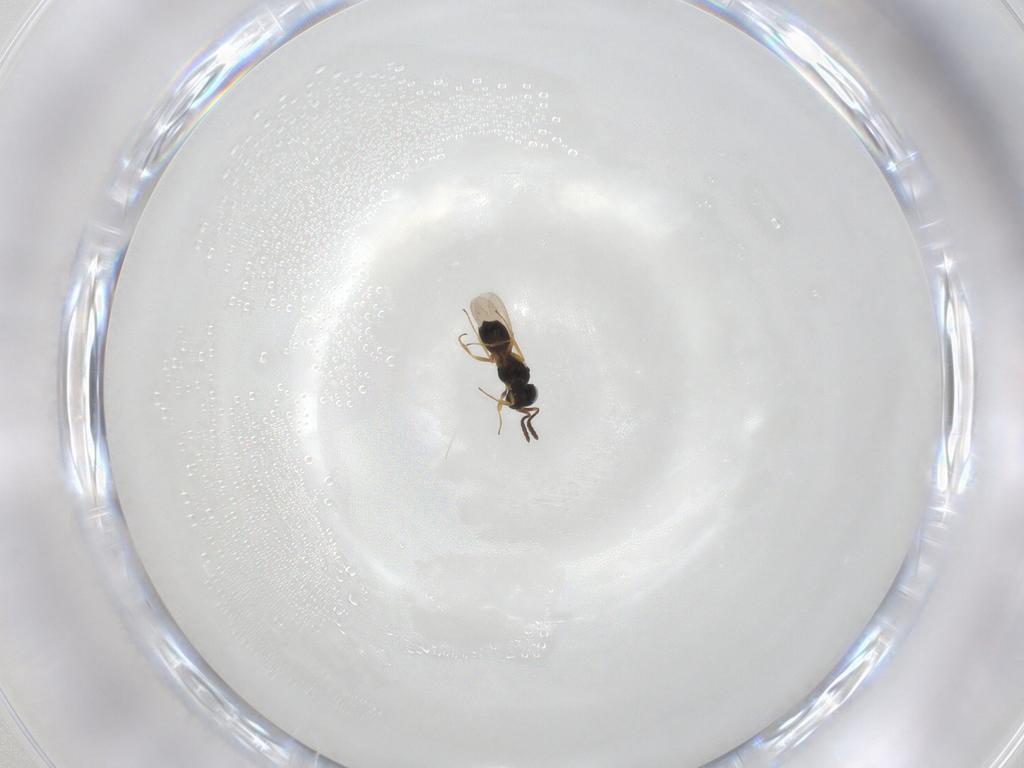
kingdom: Animalia
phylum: Arthropoda
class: Insecta
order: Hymenoptera
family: Scelionidae
